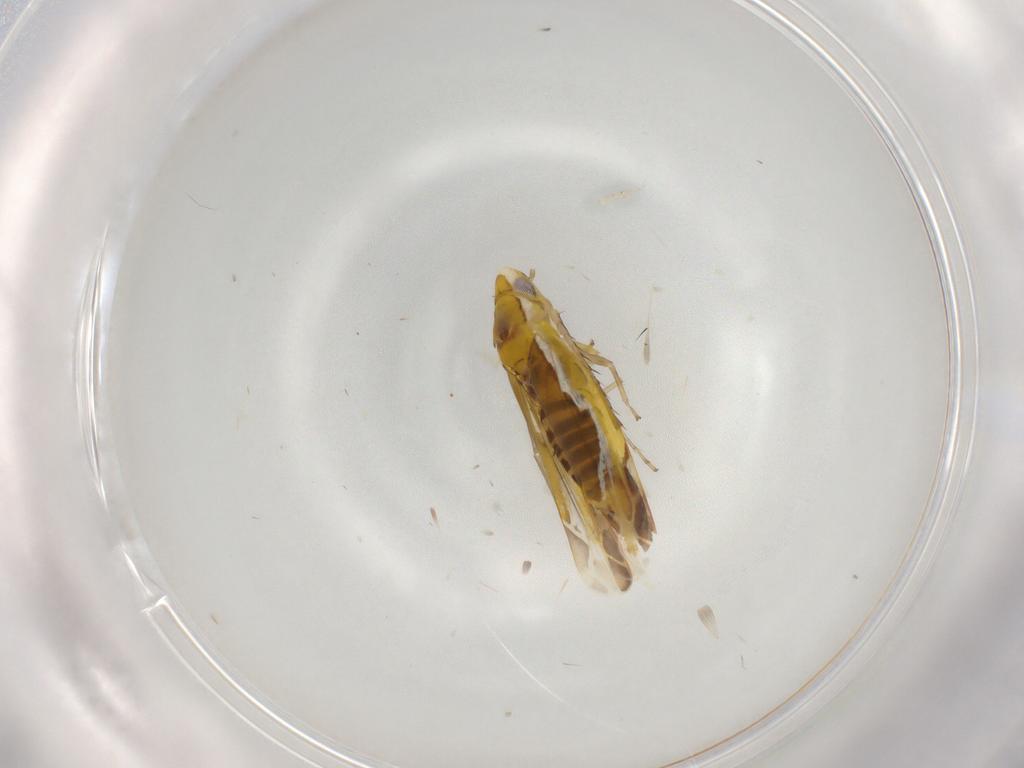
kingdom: Animalia
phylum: Arthropoda
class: Insecta
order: Hemiptera
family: Cicadellidae
